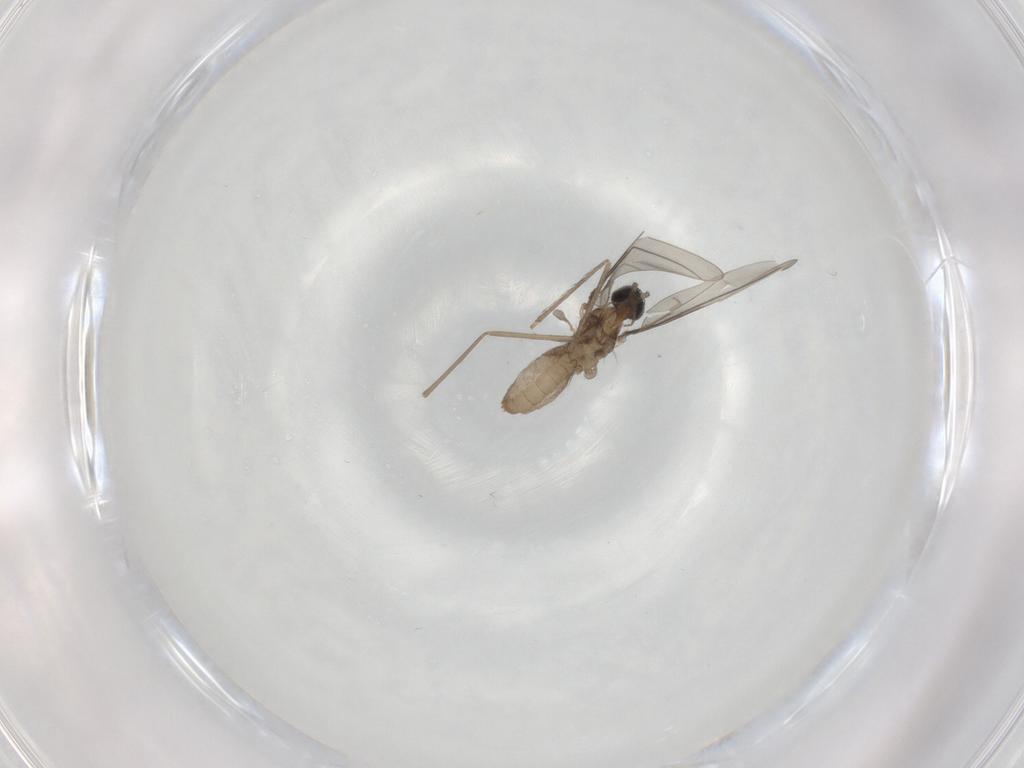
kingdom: Animalia
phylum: Arthropoda
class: Insecta
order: Diptera
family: Cecidomyiidae
